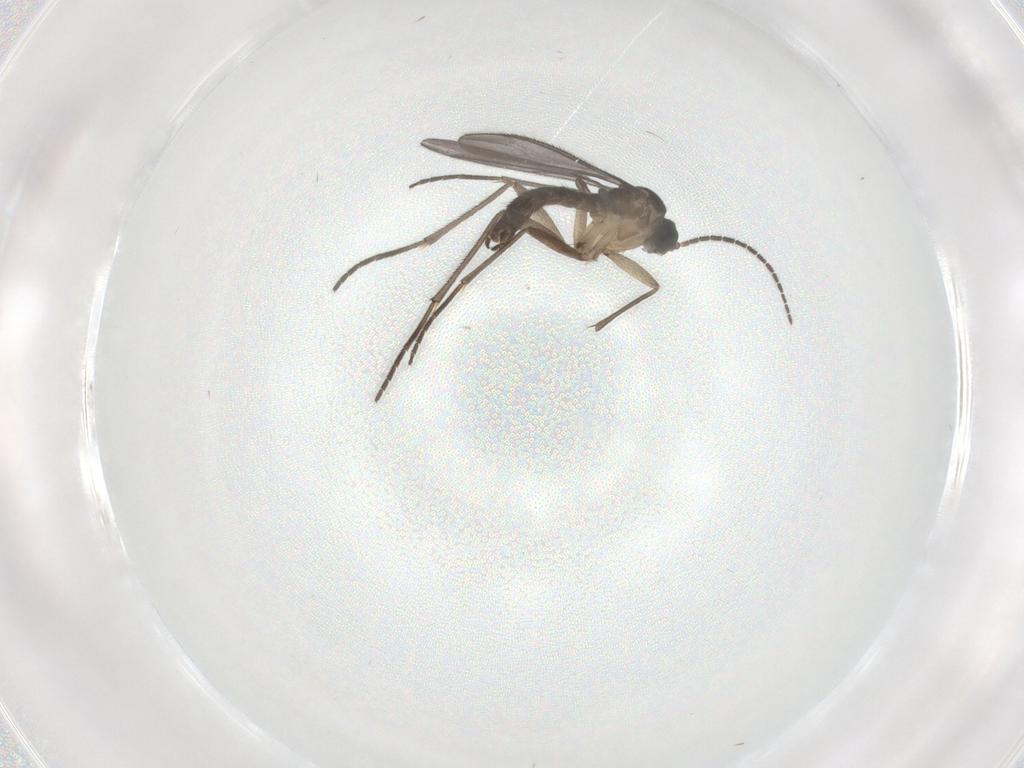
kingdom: Animalia
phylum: Arthropoda
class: Insecta
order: Diptera
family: Sciaridae
